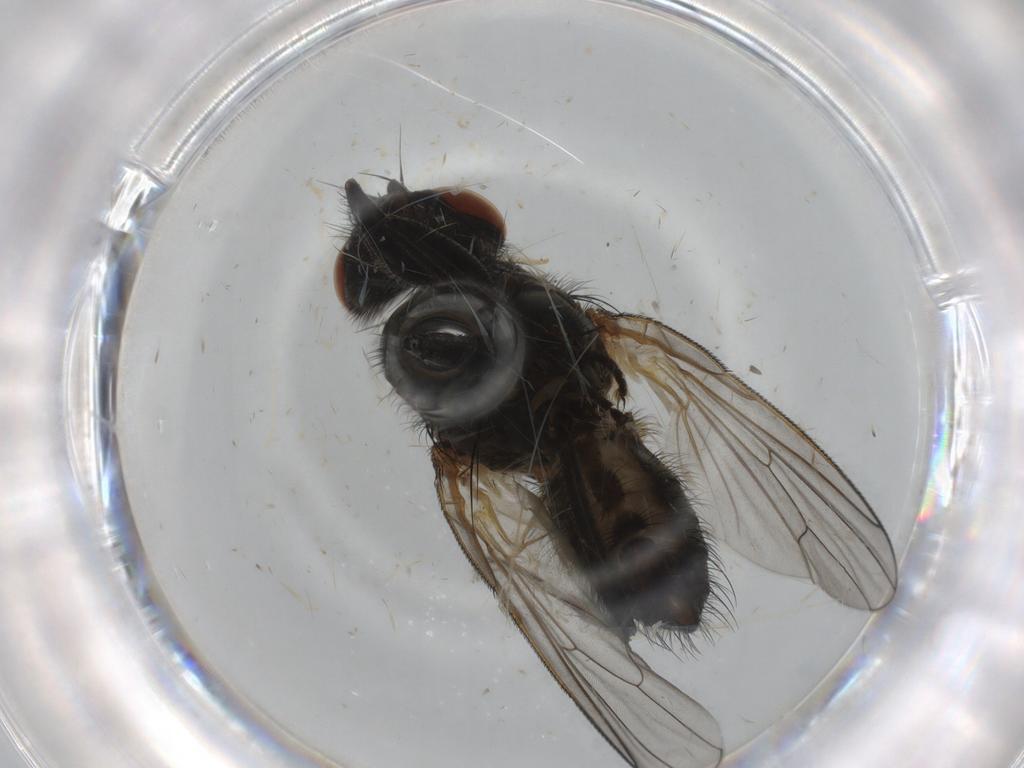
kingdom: Animalia
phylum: Arthropoda
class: Insecta
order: Diptera
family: Anthomyiidae
